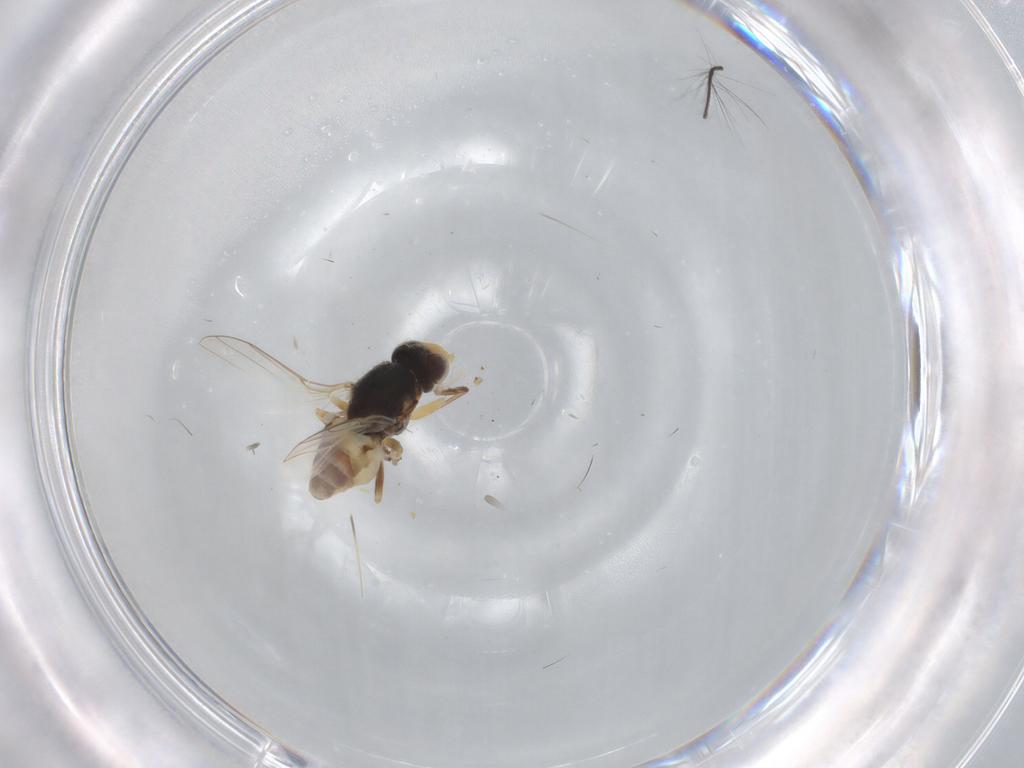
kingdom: Animalia
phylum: Arthropoda
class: Insecta
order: Diptera
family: Chloropidae
